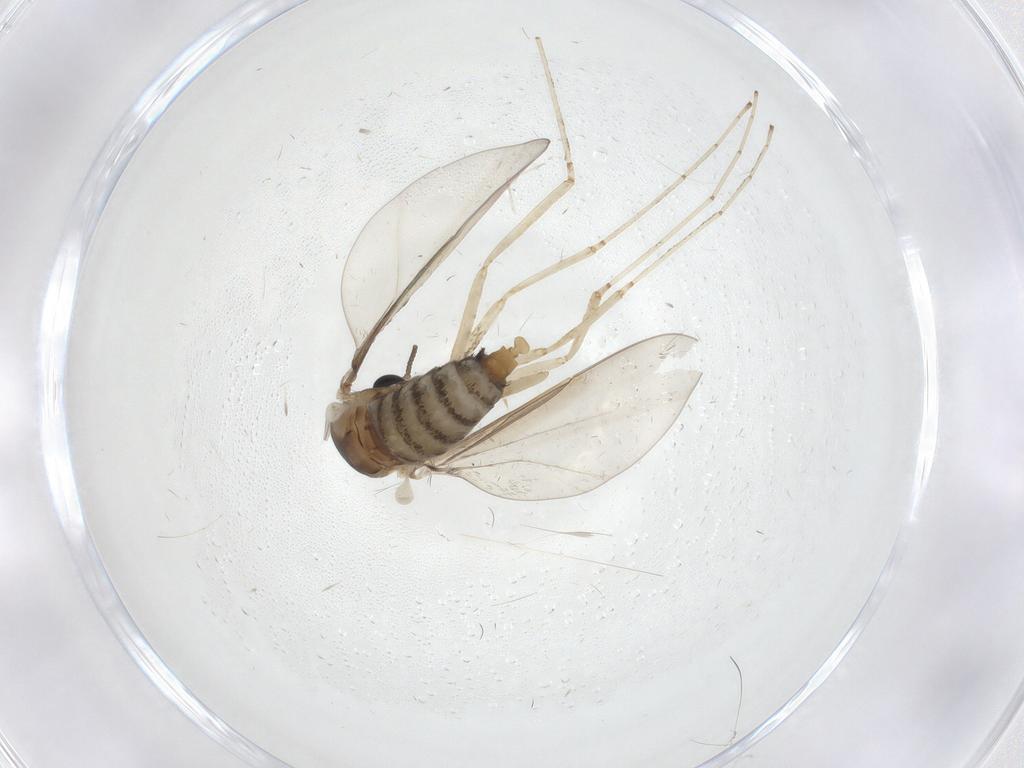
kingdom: Animalia
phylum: Arthropoda
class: Insecta
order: Diptera
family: Cecidomyiidae
